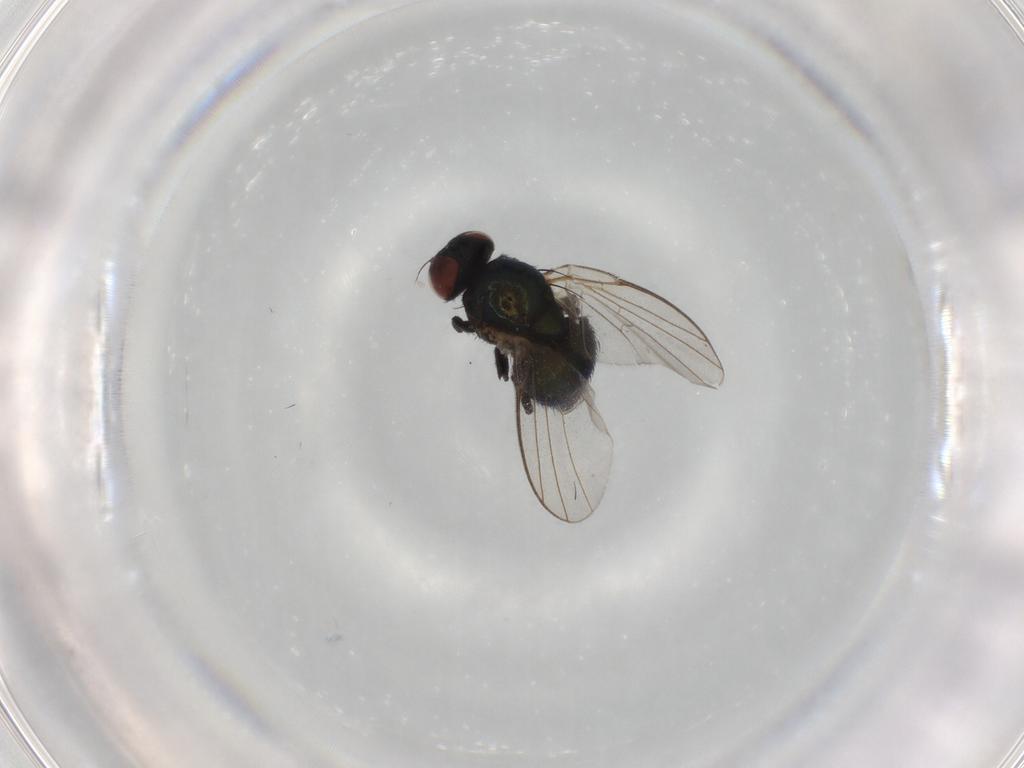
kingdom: Animalia
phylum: Arthropoda
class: Insecta
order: Diptera
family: Agromyzidae
